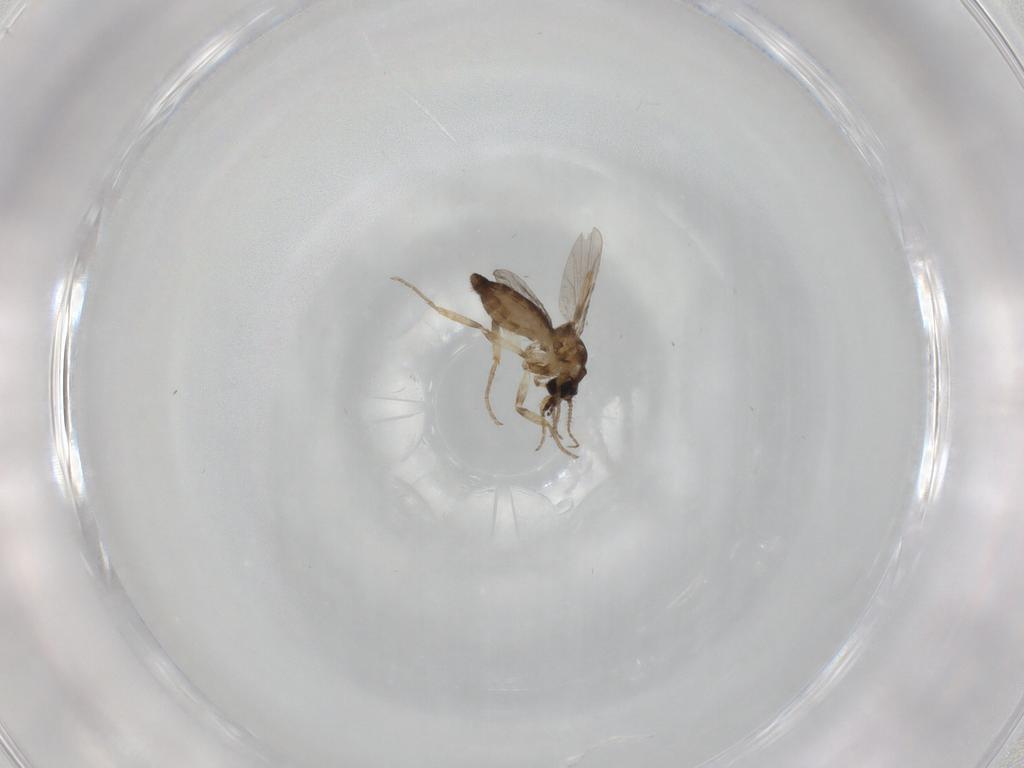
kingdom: Animalia
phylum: Arthropoda
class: Insecta
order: Diptera
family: Ceratopogonidae
